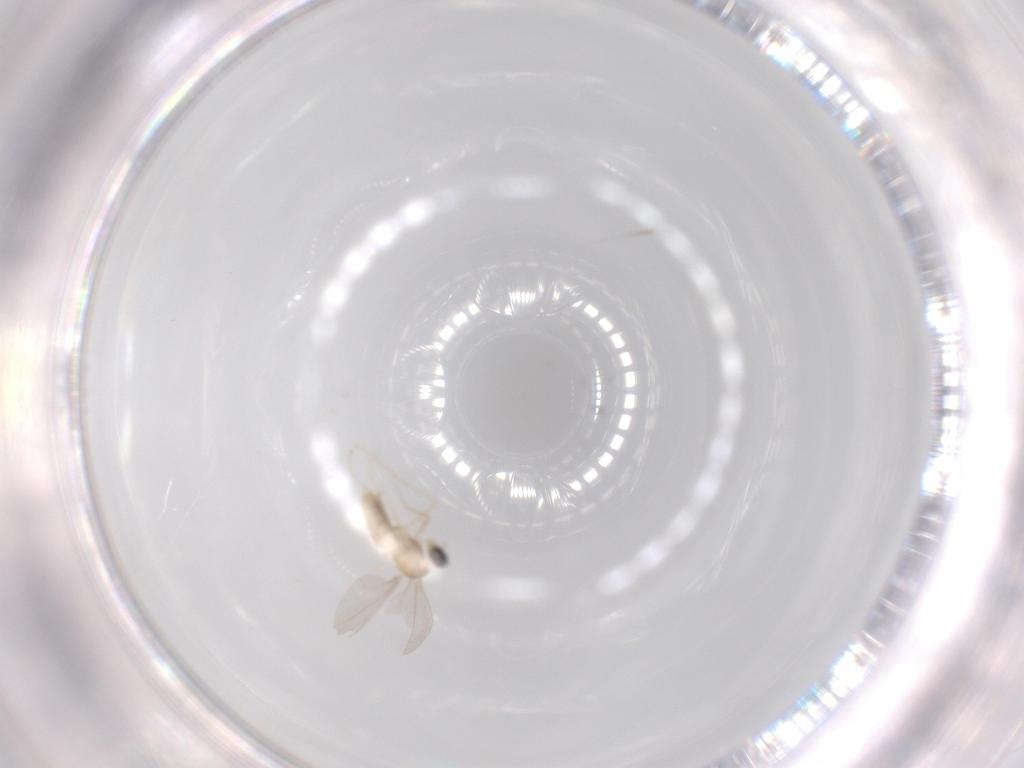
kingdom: Animalia
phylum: Arthropoda
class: Insecta
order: Diptera
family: Cecidomyiidae
